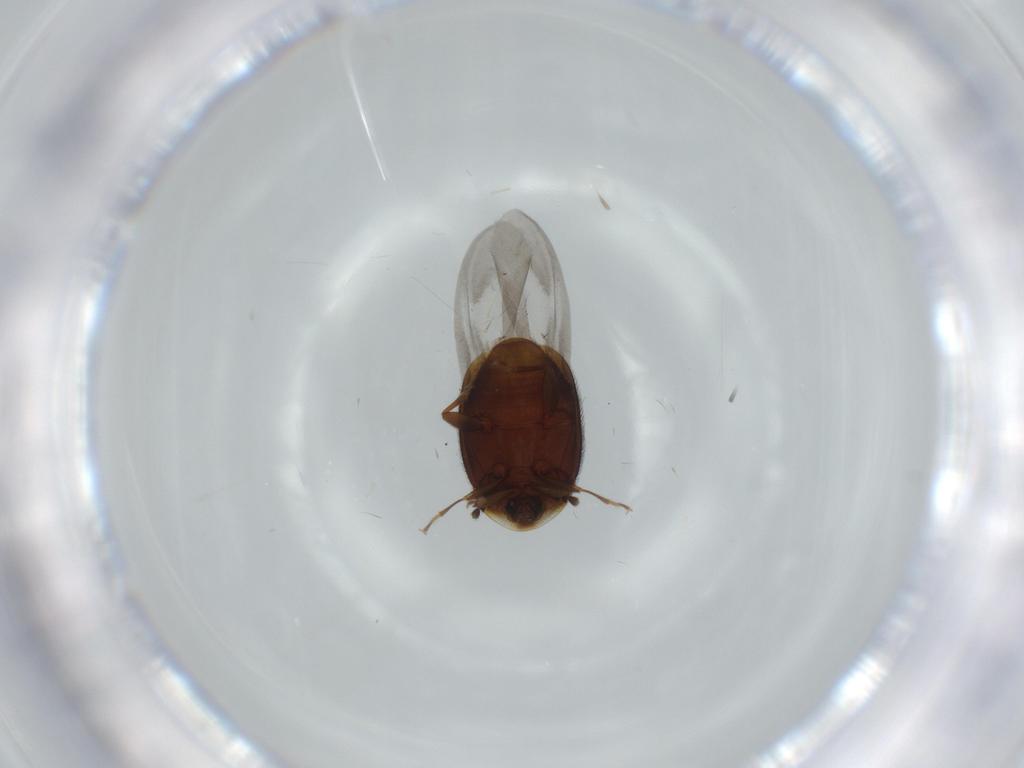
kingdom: Animalia
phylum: Arthropoda
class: Insecta
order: Coleoptera
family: Corylophidae
